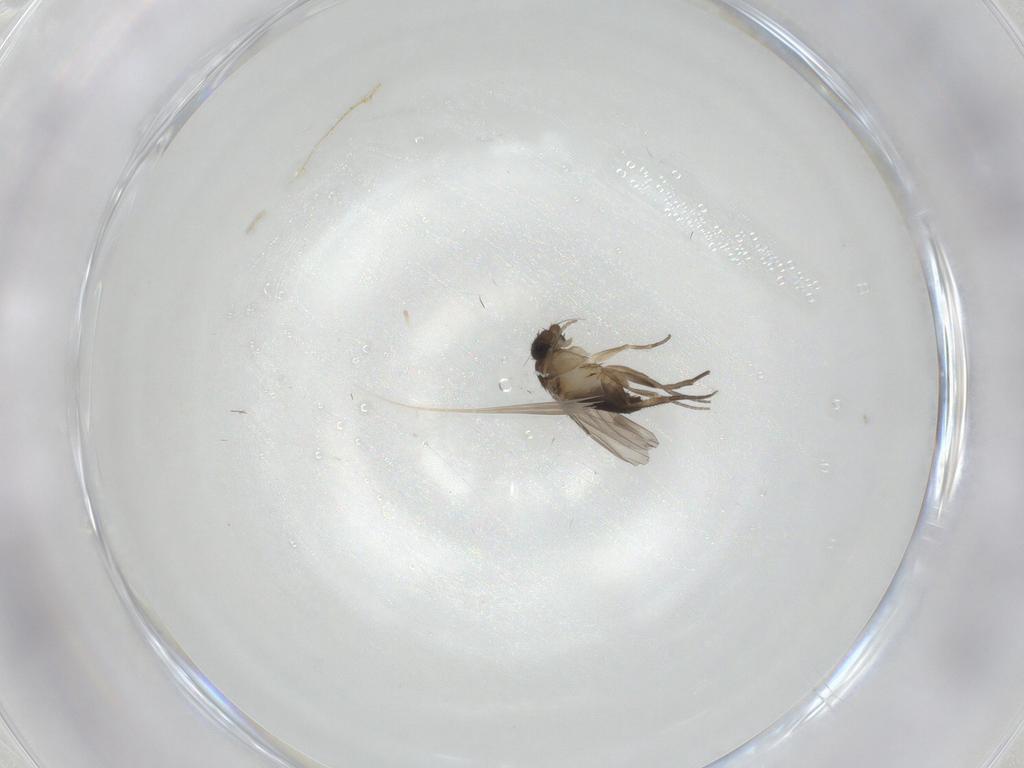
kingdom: Animalia
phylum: Arthropoda
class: Insecta
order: Diptera
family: Phoridae
